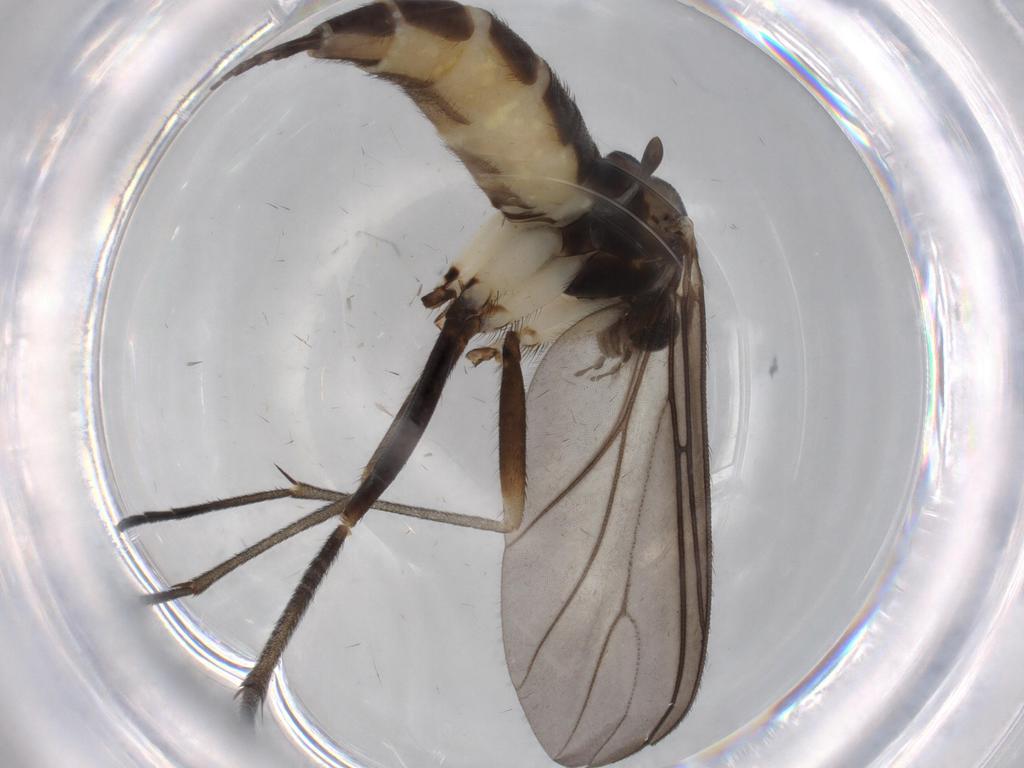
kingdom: Animalia
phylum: Arthropoda
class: Insecta
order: Diptera
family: Sciaridae
